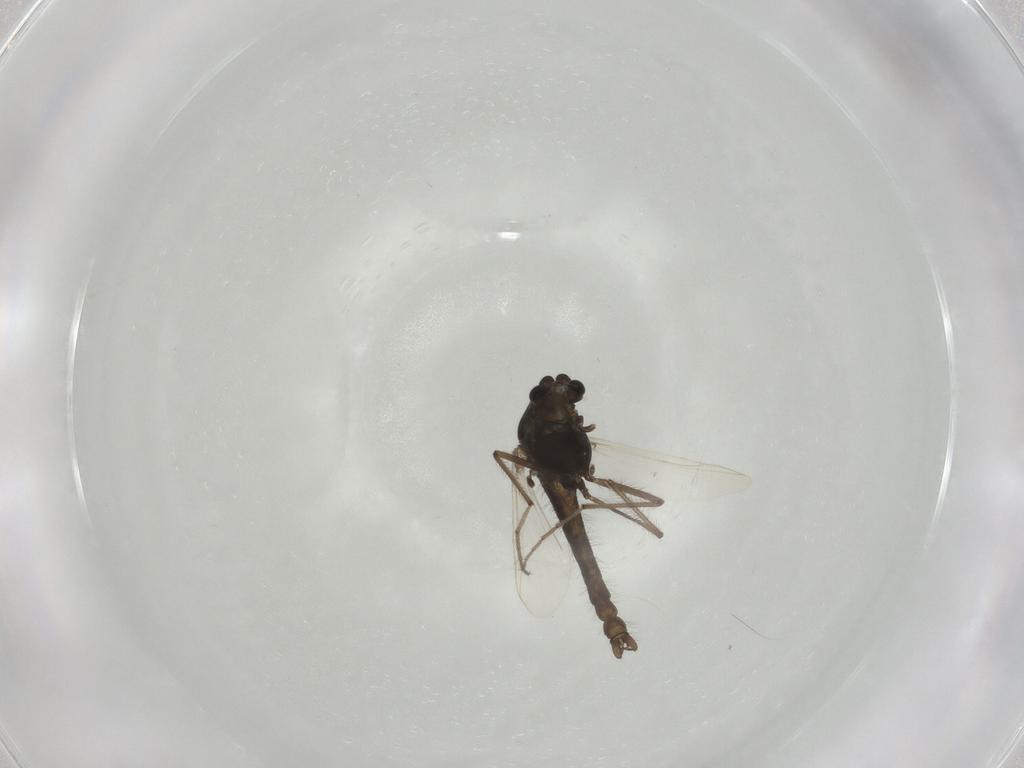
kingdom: Animalia
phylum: Arthropoda
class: Insecta
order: Diptera
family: Chironomidae
